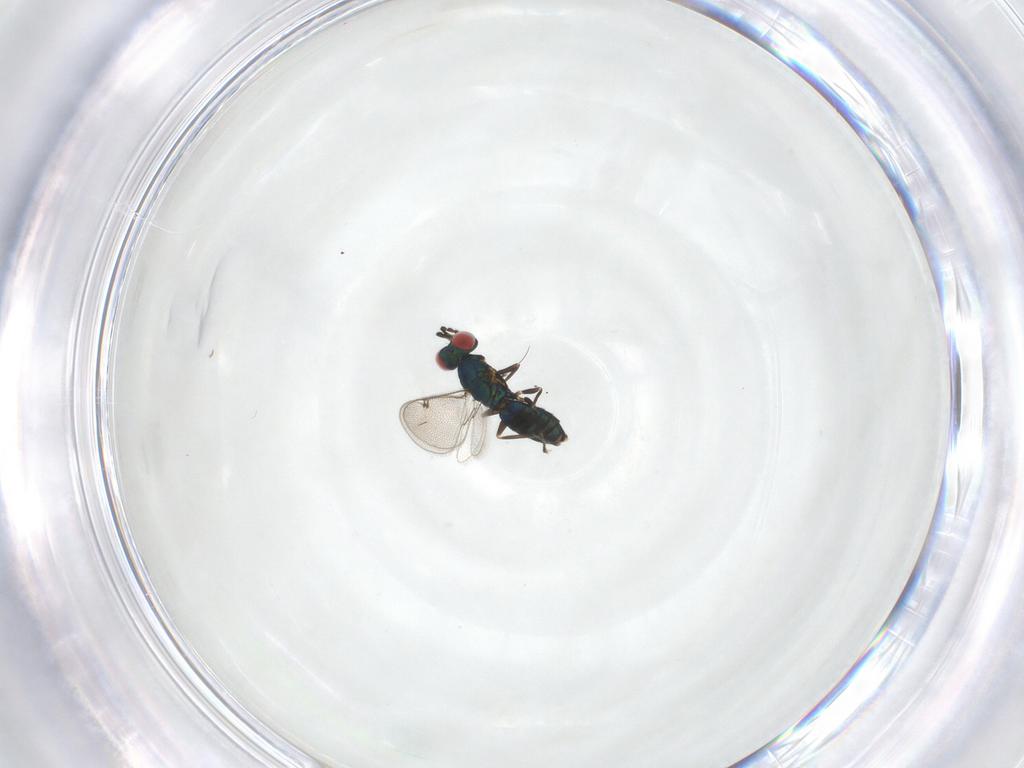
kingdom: Animalia
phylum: Arthropoda
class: Insecta
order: Hymenoptera
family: Eulophidae
